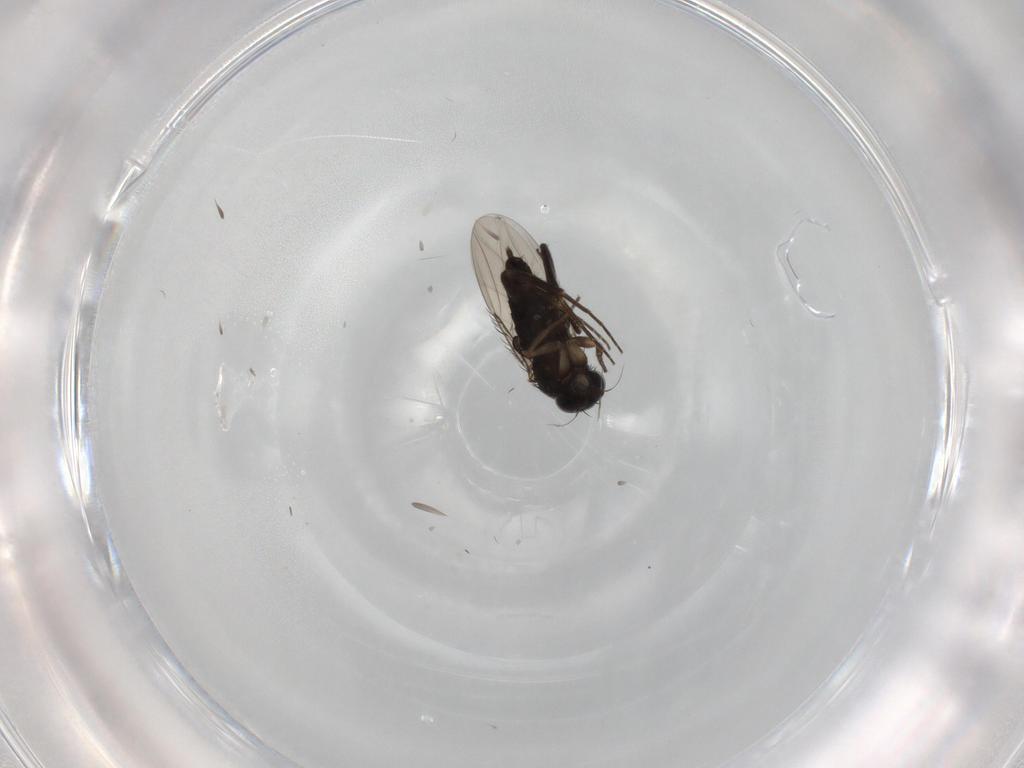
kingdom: Animalia
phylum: Arthropoda
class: Insecta
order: Diptera
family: Phoridae
